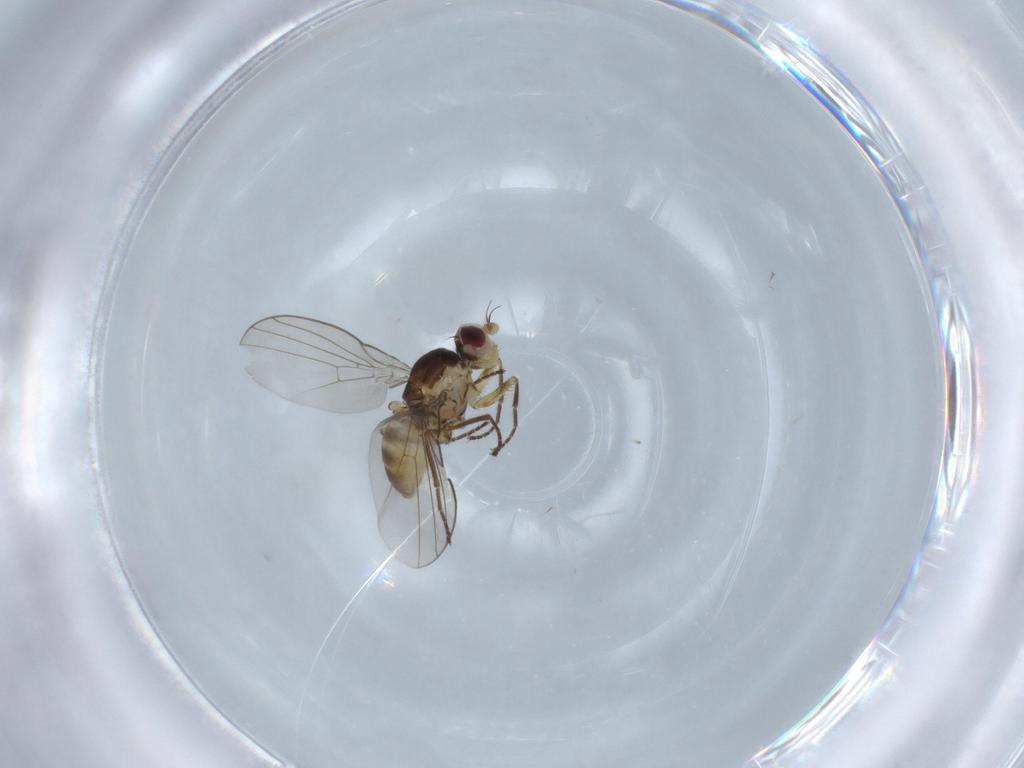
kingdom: Animalia
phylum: Arthropoda
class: Insecta
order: Diptera
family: Agromyzidae
